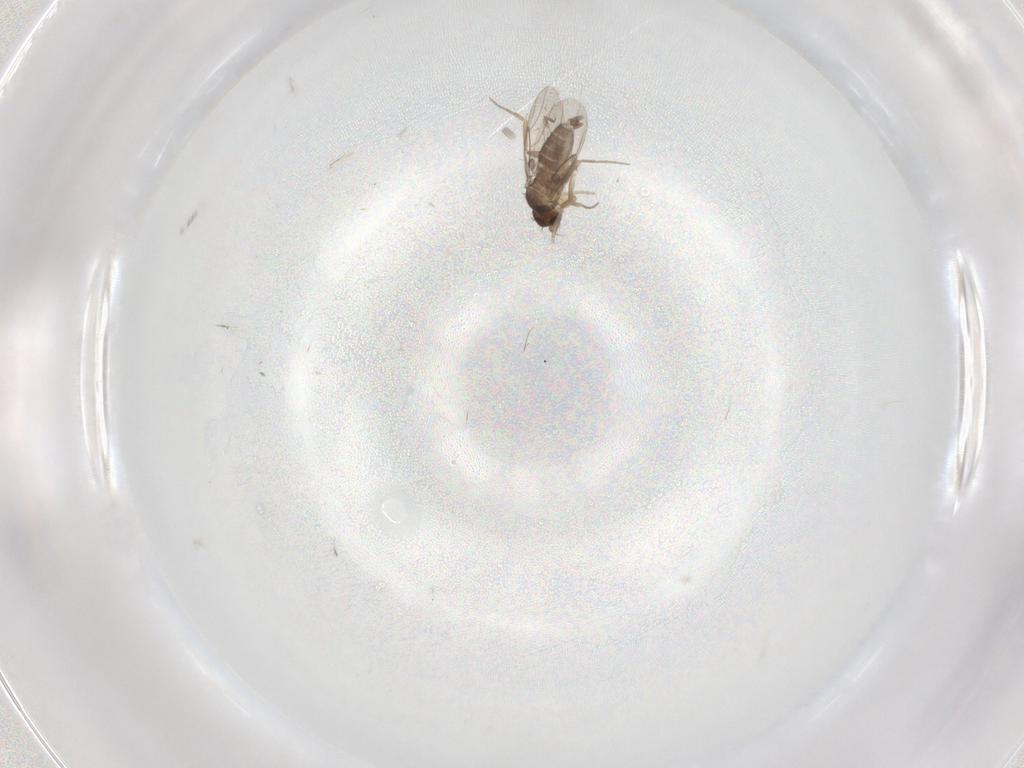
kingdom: Animalia
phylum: Arthropoda
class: Insecta
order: Diptera
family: Phoridae
